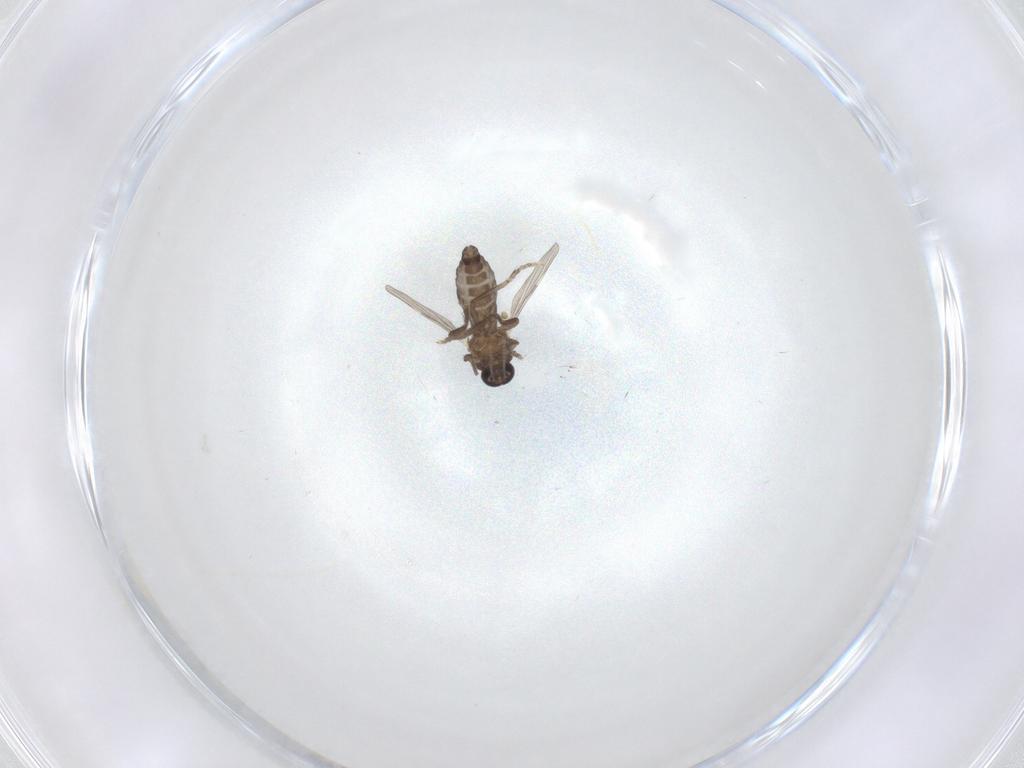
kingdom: Animalia
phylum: Arthropoda
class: Insecta
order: Diptera
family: Ceratopogonidae
